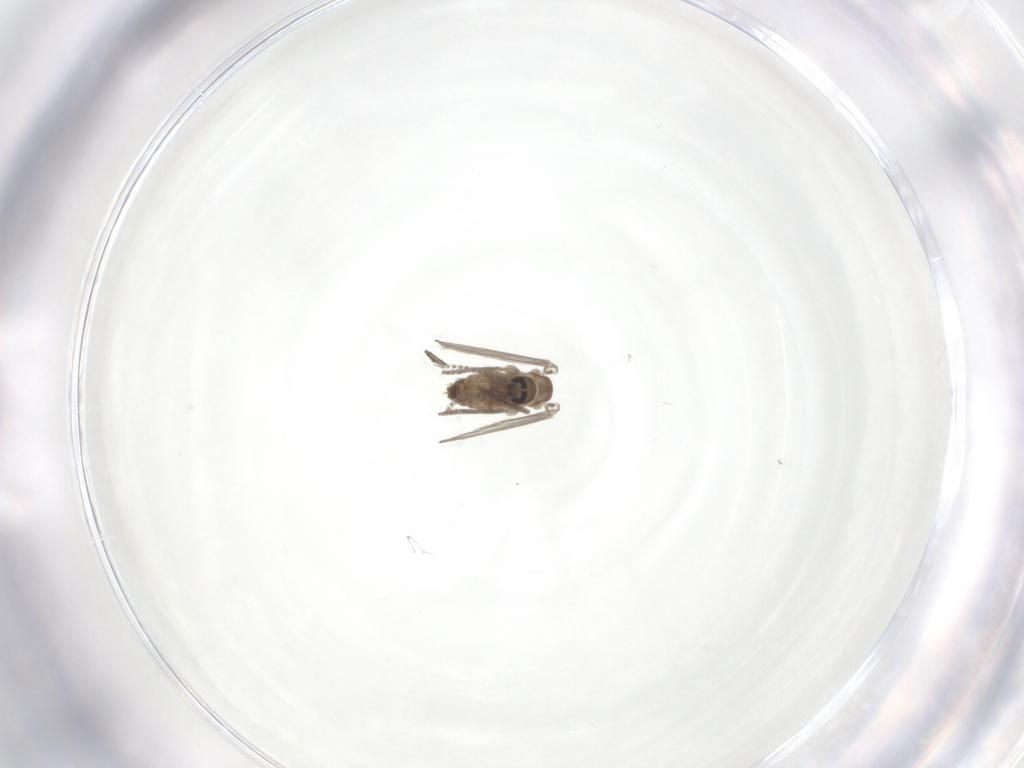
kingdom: Animalia
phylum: Arthropoda
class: Insecta
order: Diptera
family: Psychodidae
